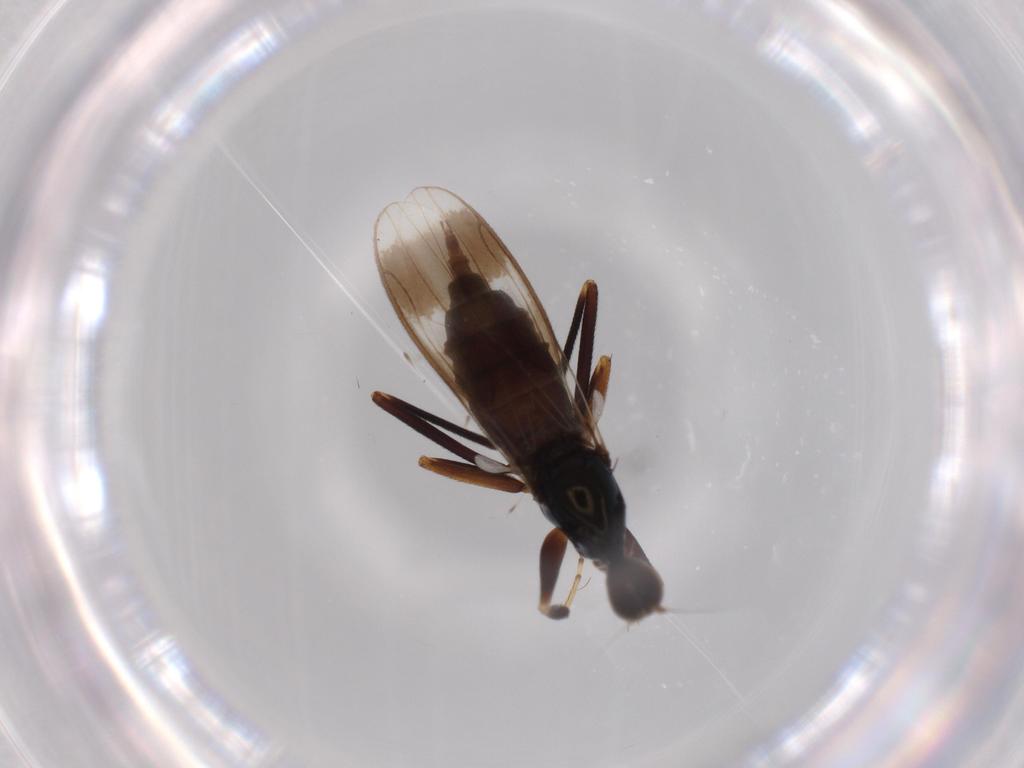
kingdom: Animalia
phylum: Arthropoda
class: Insecta
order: Diptera
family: Hybotidae
